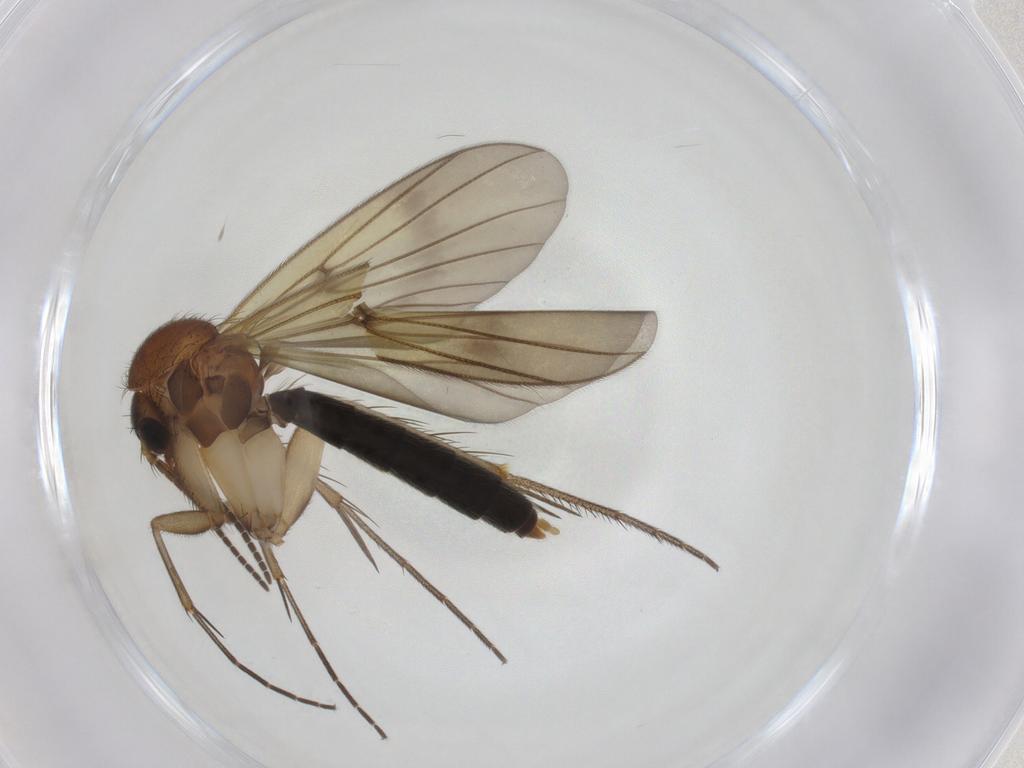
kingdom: Animalia
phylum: Arthropoda
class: Insecta
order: Diptera
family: Mycetophilidae
